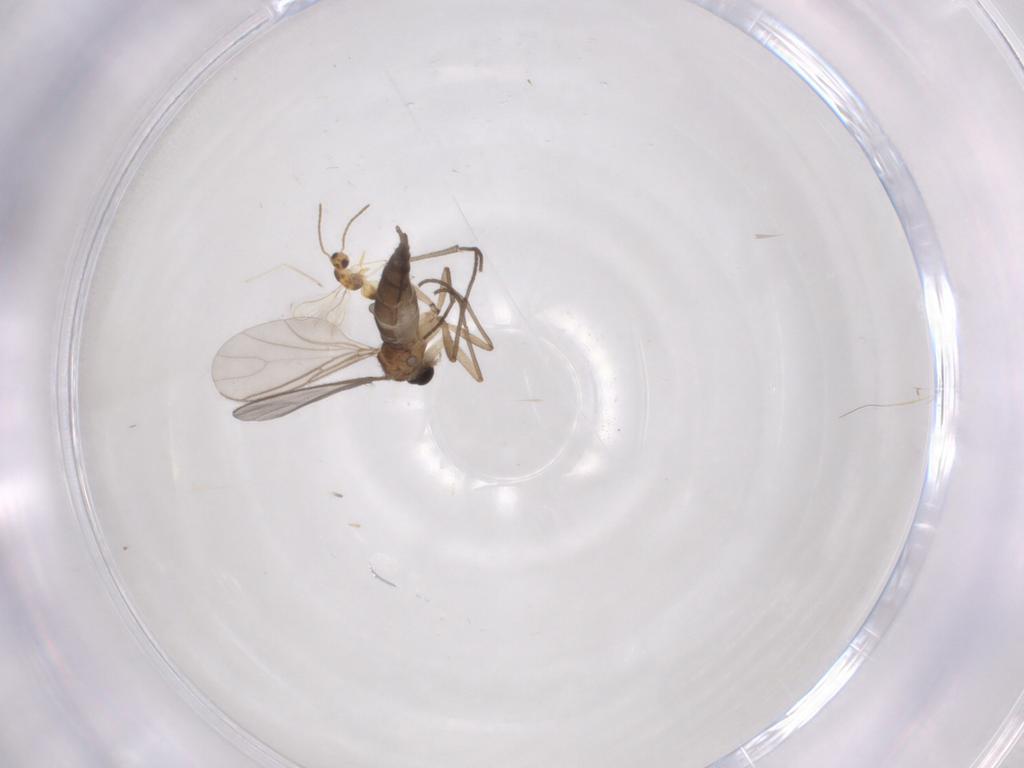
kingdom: Animalia
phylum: Arthropoda
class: Insecta
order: Diptera
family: Sciaridae
